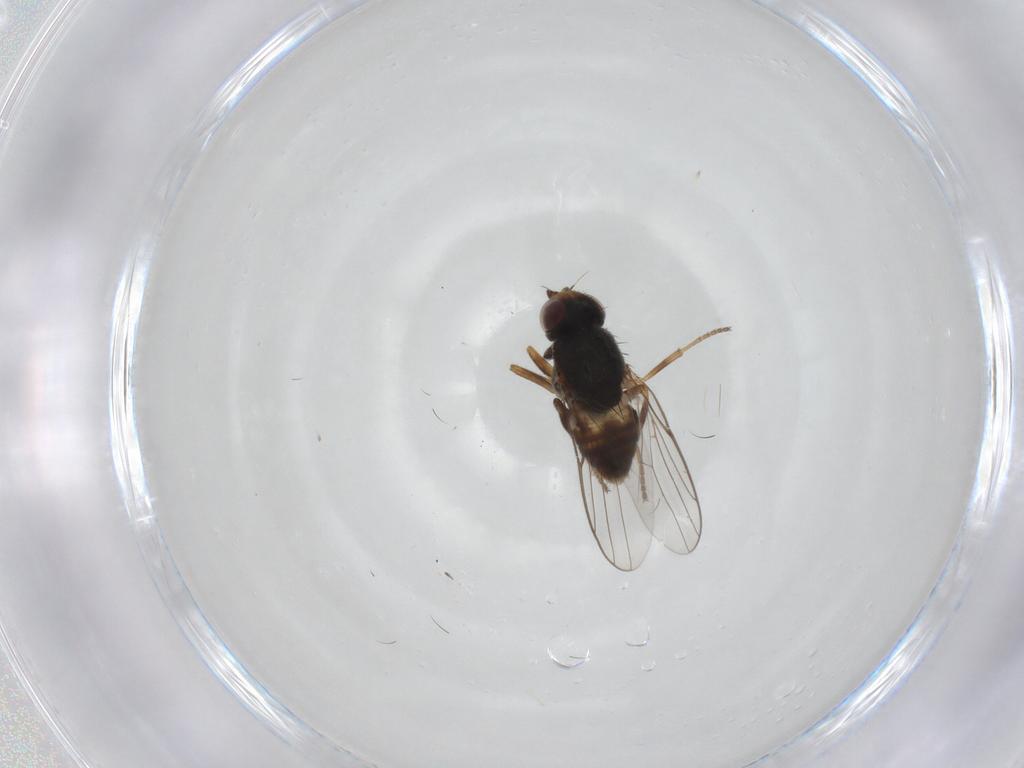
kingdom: Animalia
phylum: Arthropoda
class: Insecta
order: Diptera
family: Chloropidae
